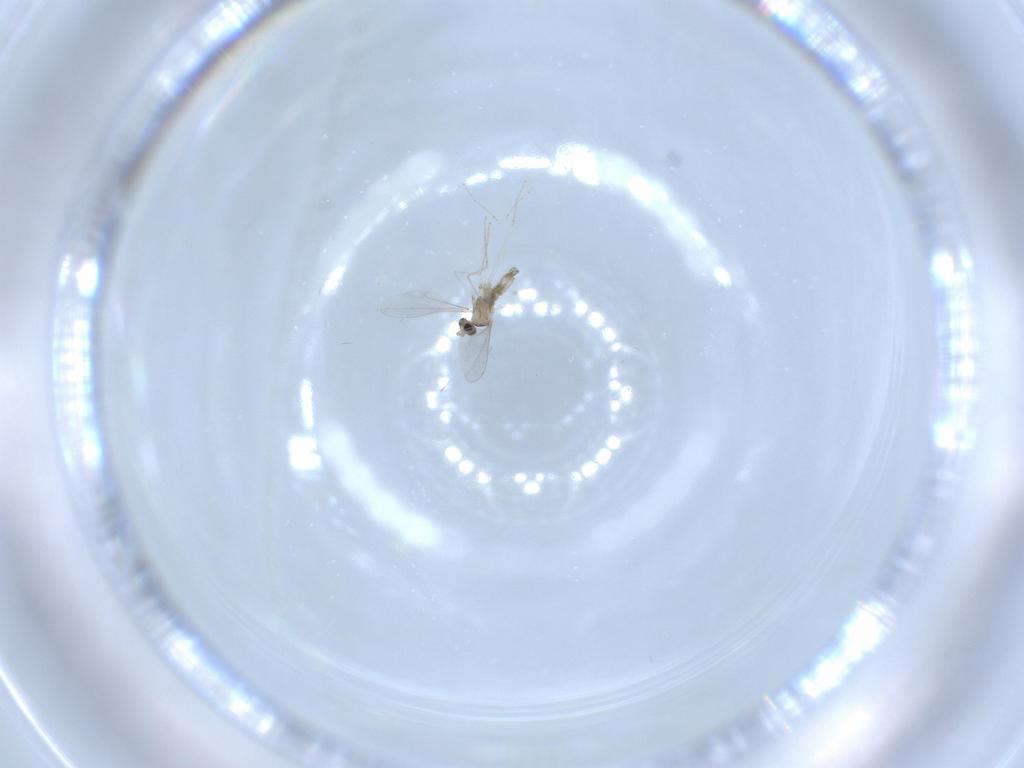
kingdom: Animalia
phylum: Arthropoda
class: Insecta
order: Diptera
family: Cecidomyiidae
